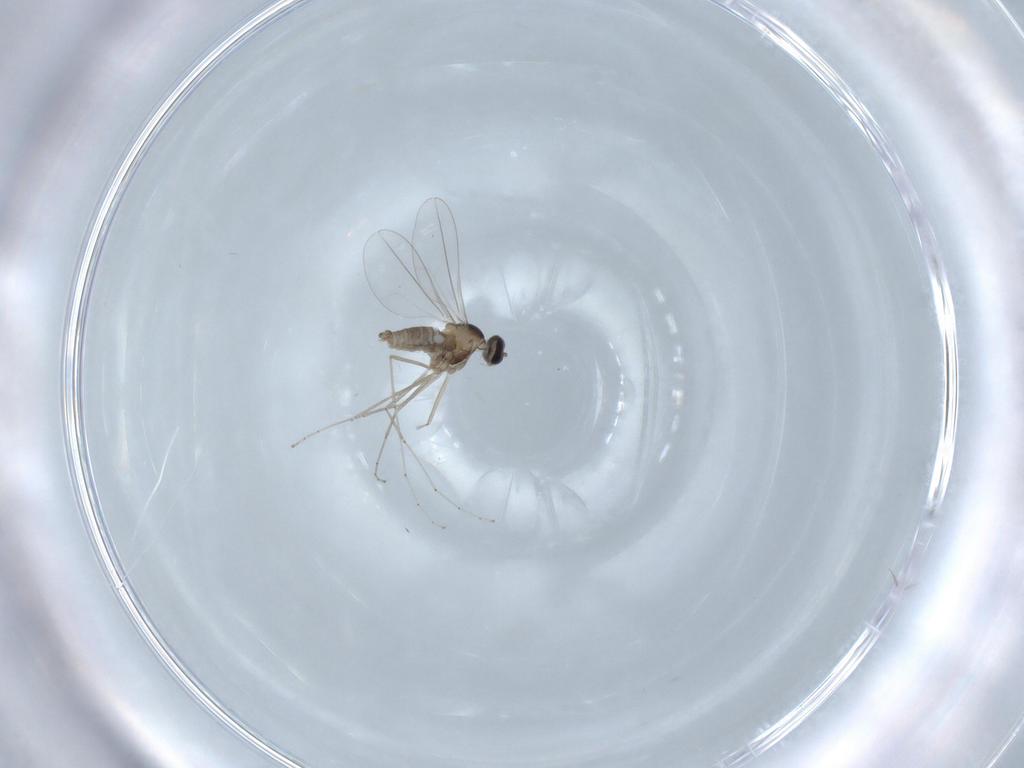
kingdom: Animalia
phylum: Arthropoda
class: Insecta
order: Diptera
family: Cecidomyiidae
